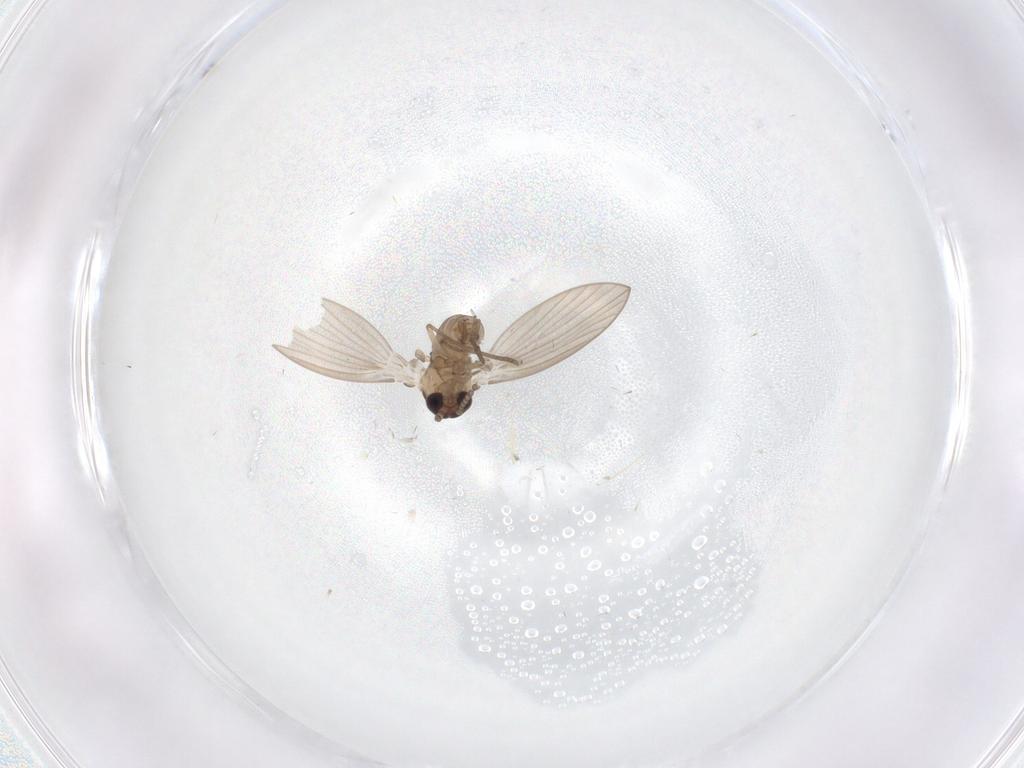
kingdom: Animalia
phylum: Arthropoda
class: Insecta
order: Diptera
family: Psychodidae
